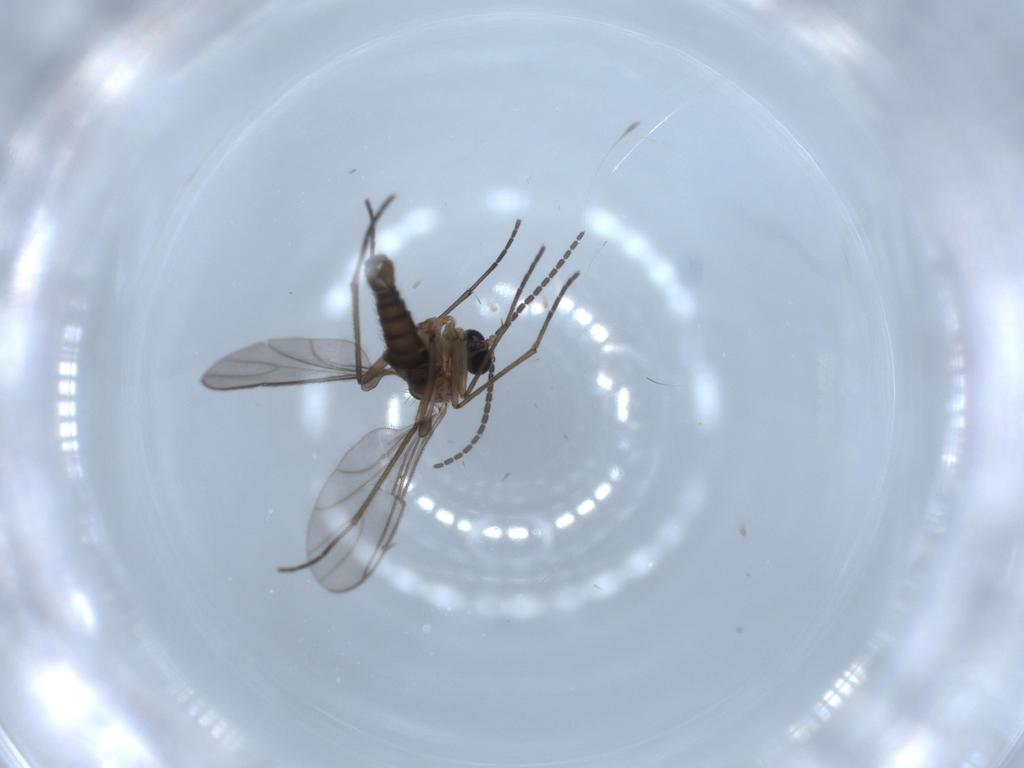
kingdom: Animalia
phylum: Arthropoda
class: Insecta
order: Diptera
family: Sciaridae
